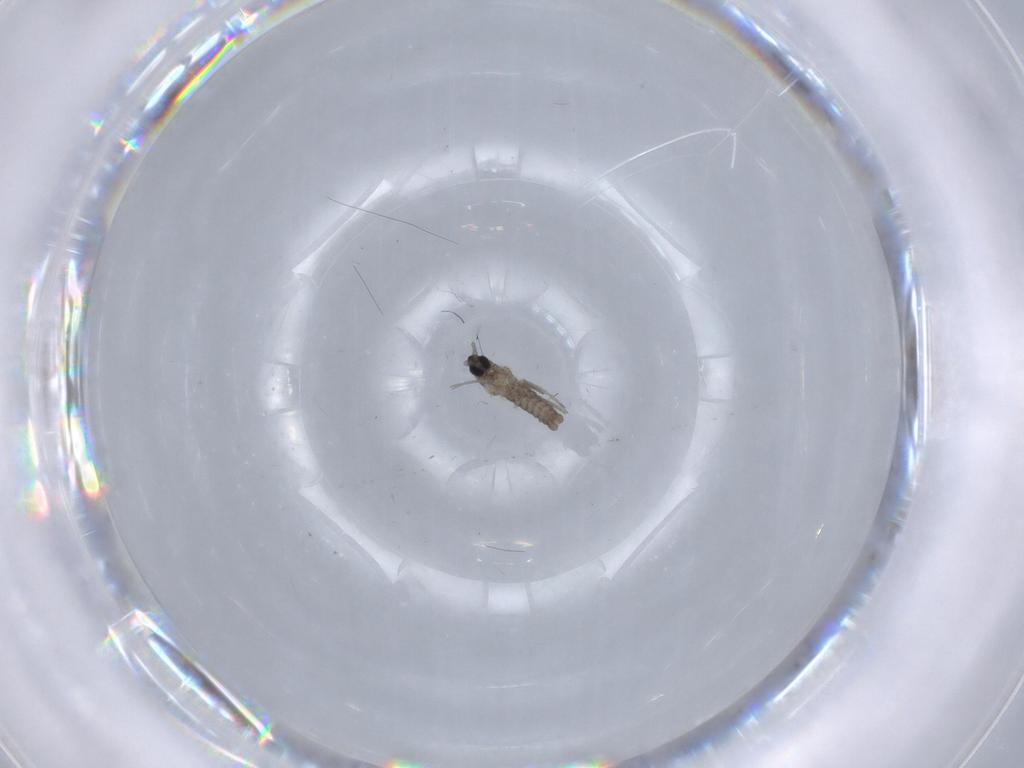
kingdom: Animalia
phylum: Arthropoda
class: Insecta
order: Diptera
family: Cecidomyiidae
